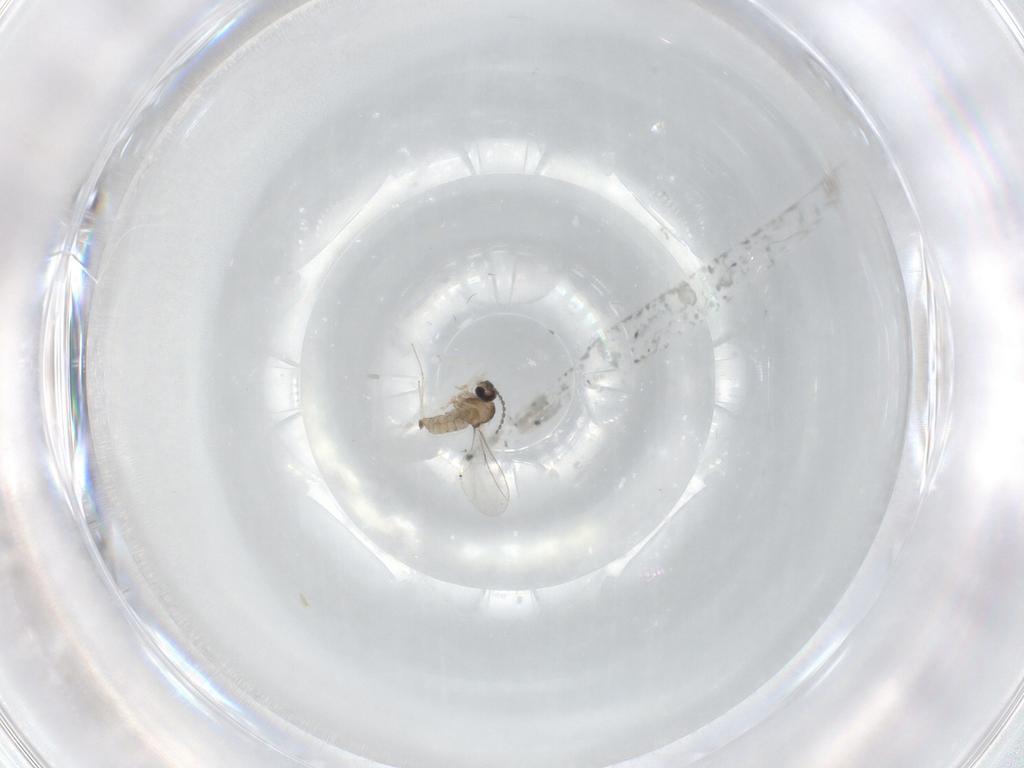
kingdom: Animalia
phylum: Arthropoda
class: Insecta
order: Diptera
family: Cecidomyiidae
